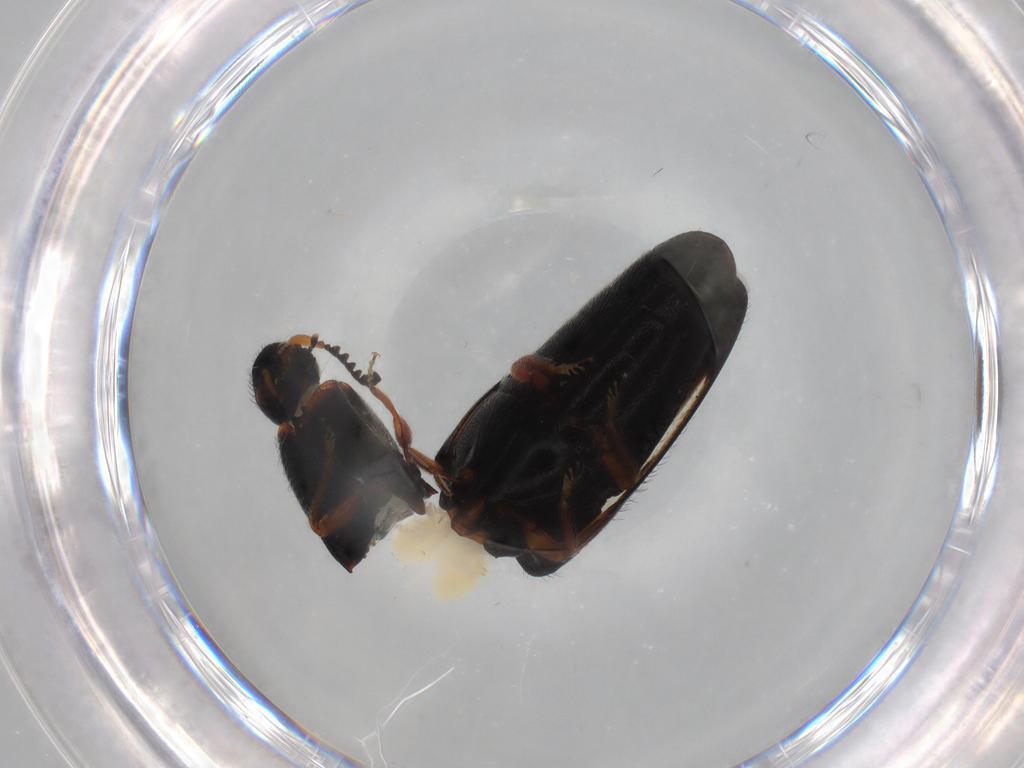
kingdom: Animalia
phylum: Arthropoda
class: Insecta
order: Coleoptera
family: Elateridae
